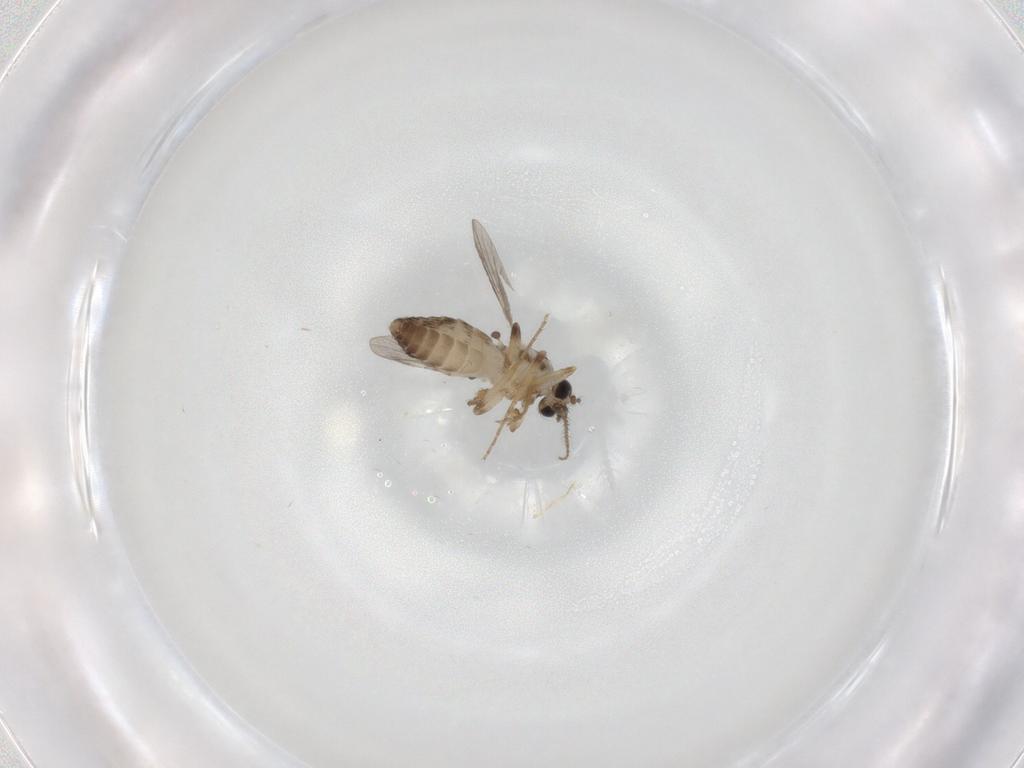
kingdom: Animalia
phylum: Arthropoda
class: Insecta
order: Diptera
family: Ceratopogonidae
